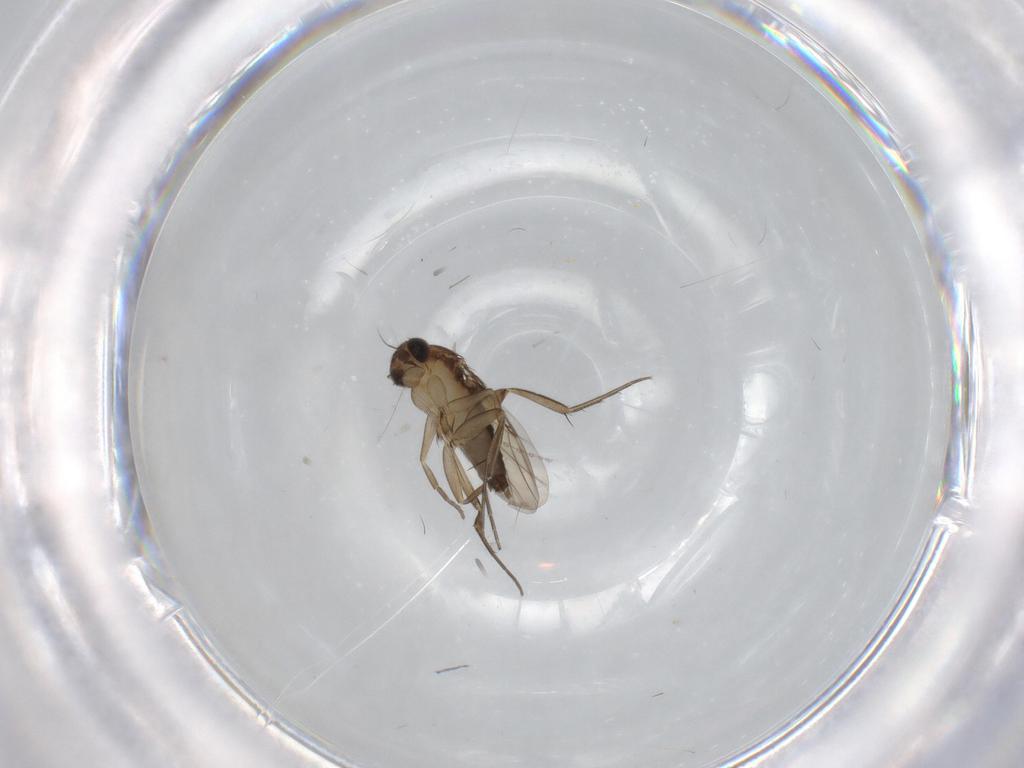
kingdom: Animalia
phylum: Arthropoda
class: Insecta
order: Diptera
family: Phoridae
